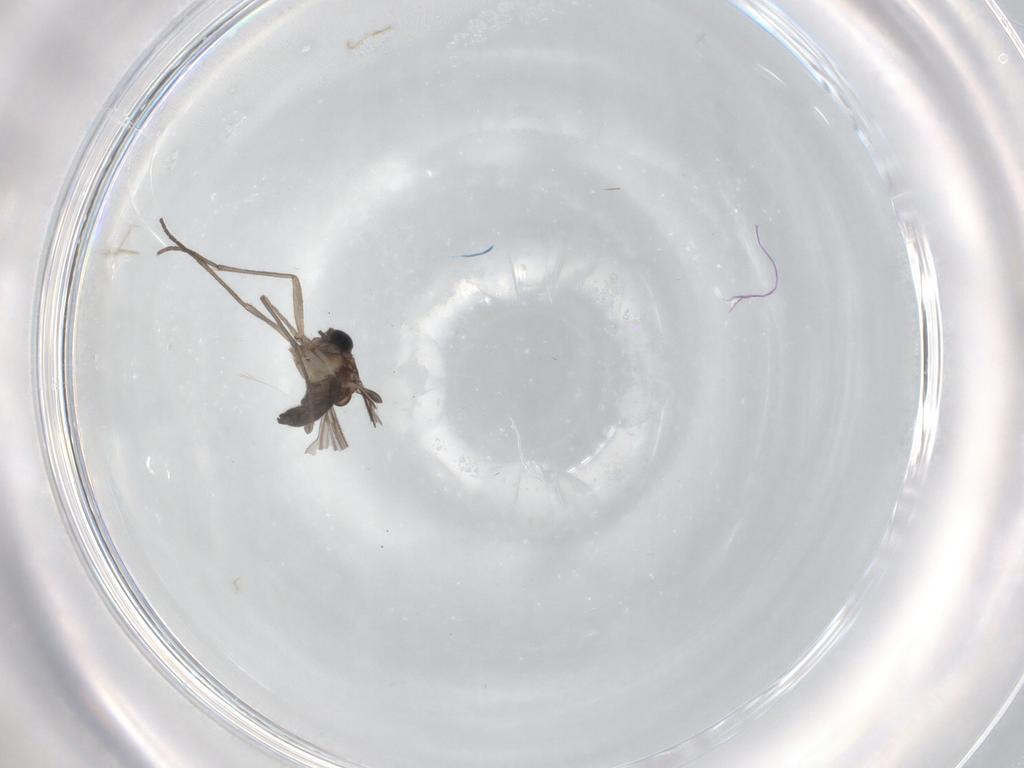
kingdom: Animalia
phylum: Arthropoda
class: Insecta
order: Diptera
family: Sciaridae
